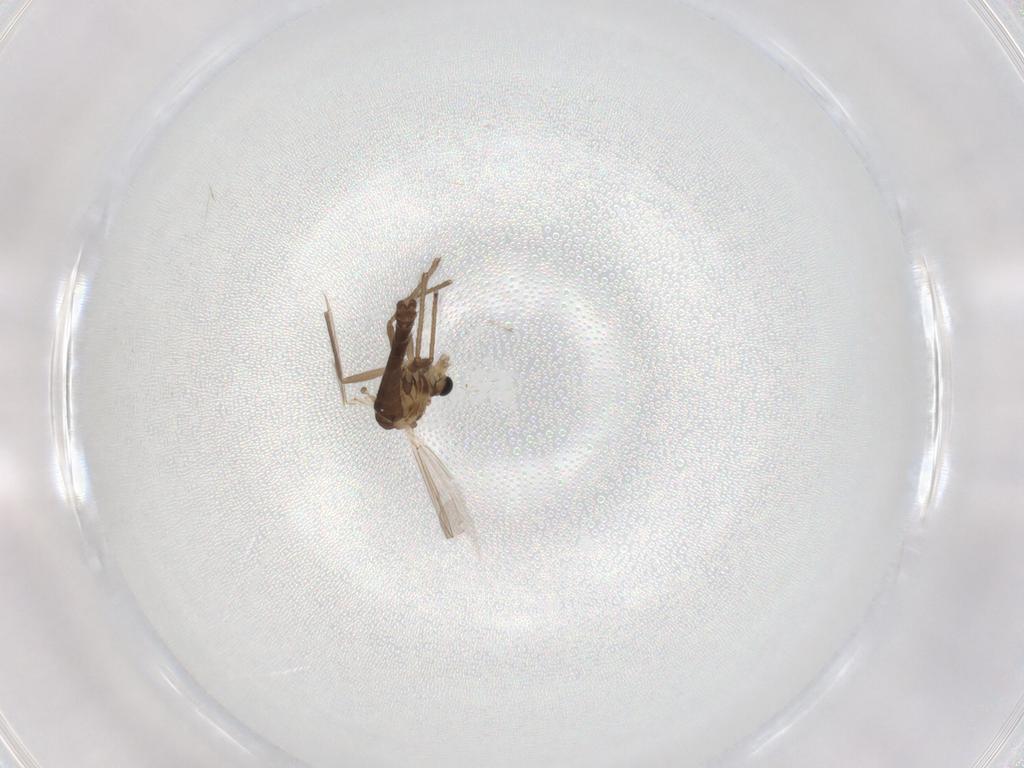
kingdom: Animalia
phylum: Arthropoda
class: Insecta
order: Diptera
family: Chironomidae
